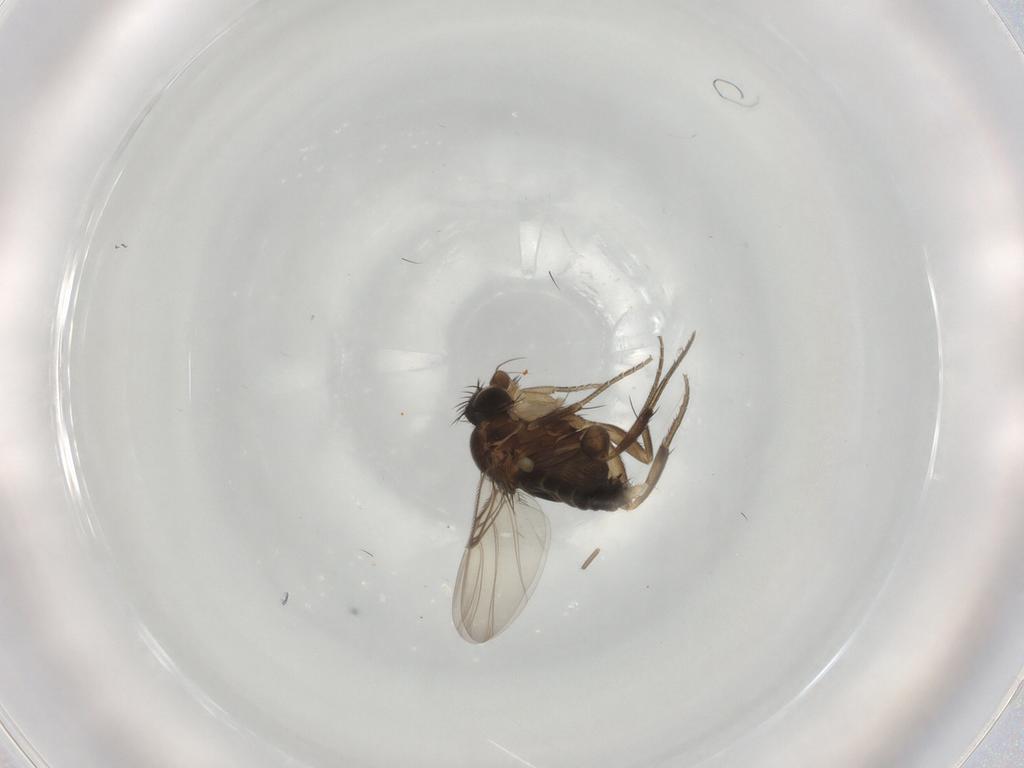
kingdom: Animalia
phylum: Arthropoda
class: Insecta
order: Diptera
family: Phoridae
